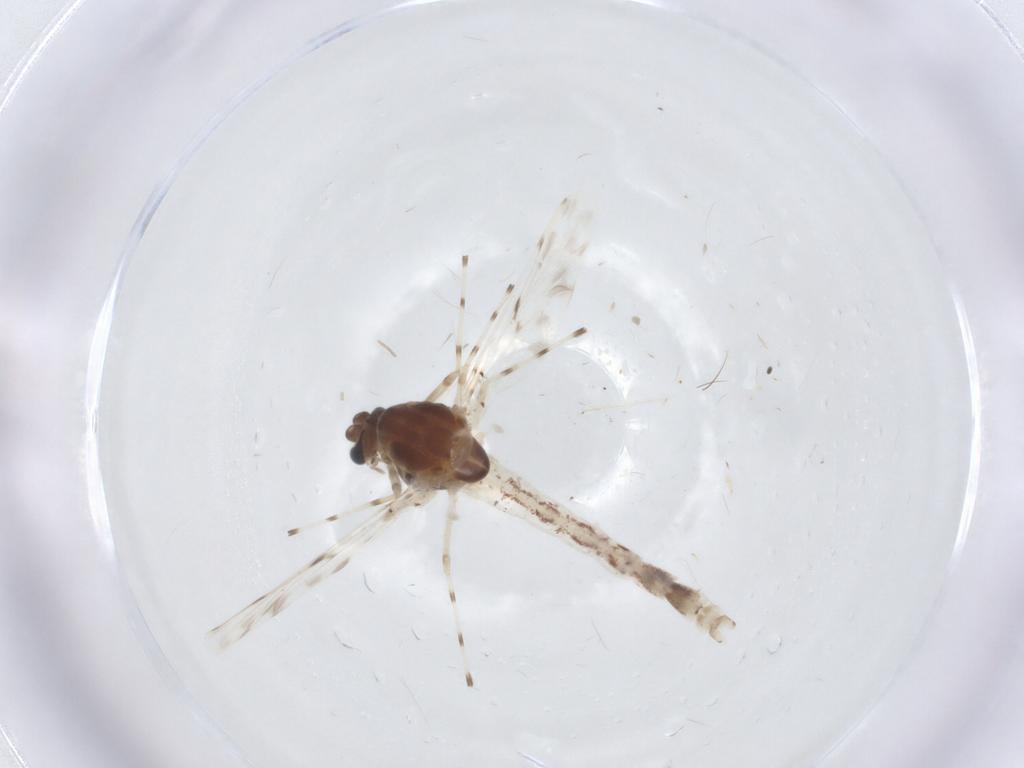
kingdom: Animalia
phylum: Arthropoda
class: Insecta
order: Diptera
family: Chironomidae
